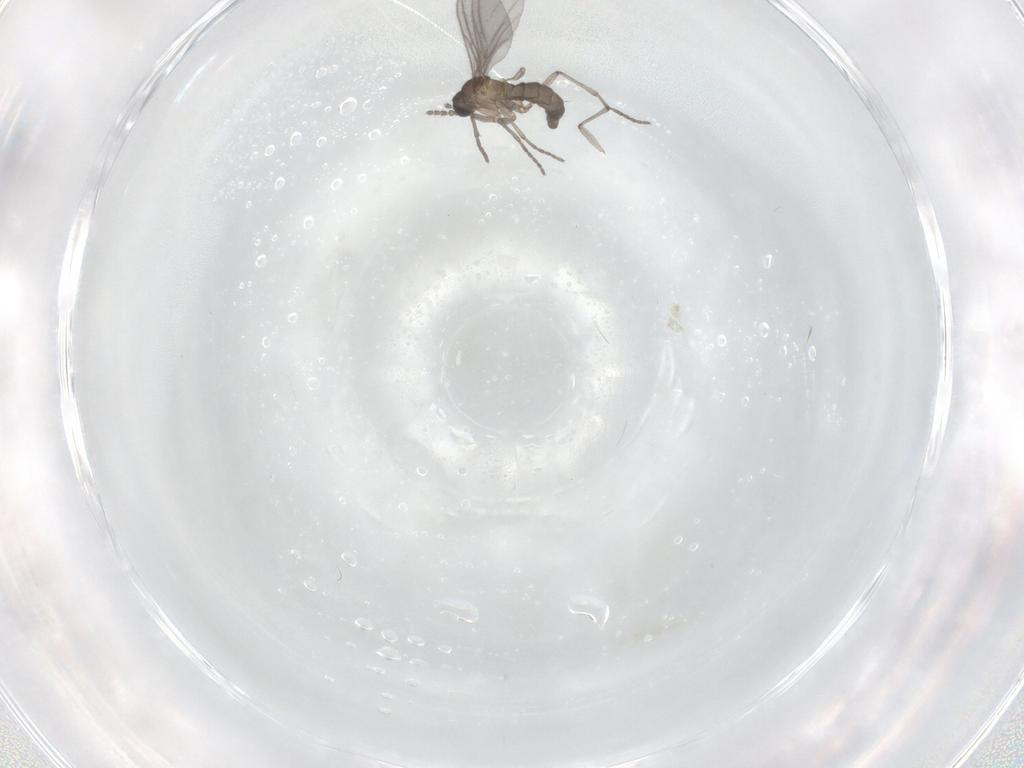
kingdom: Animalia
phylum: Arthropoda
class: Insecta
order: Diptera
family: Sciaridae
